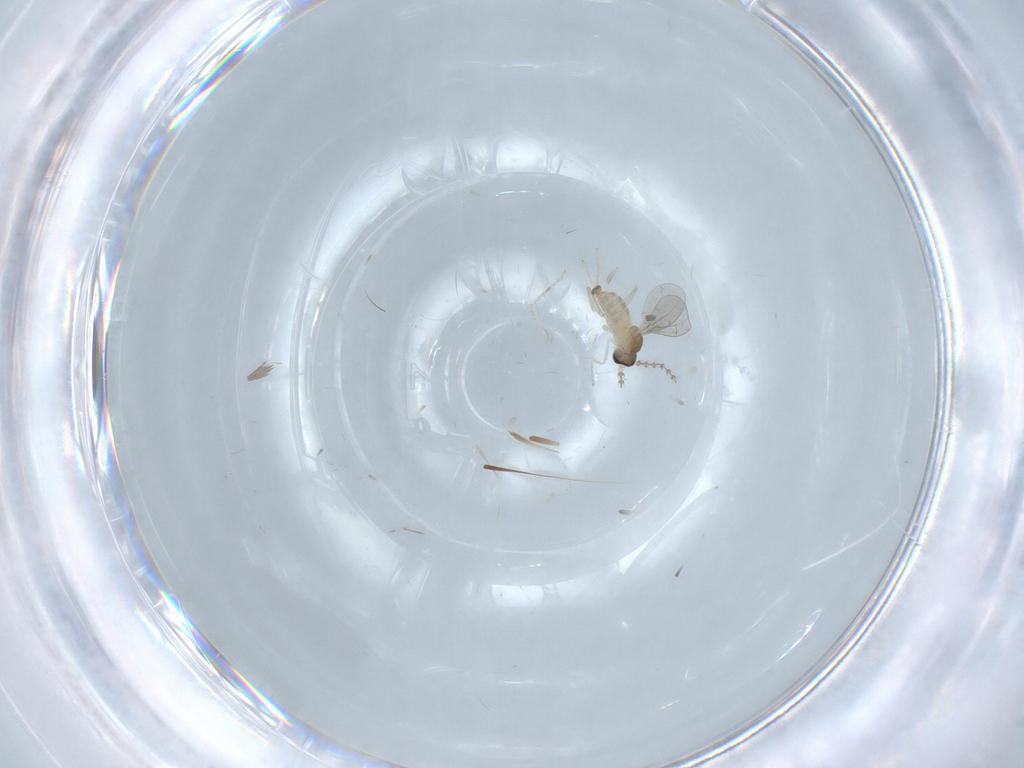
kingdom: Animalia
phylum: Arthropoda
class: Insecta
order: Diptera
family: Cecidomyiidae
